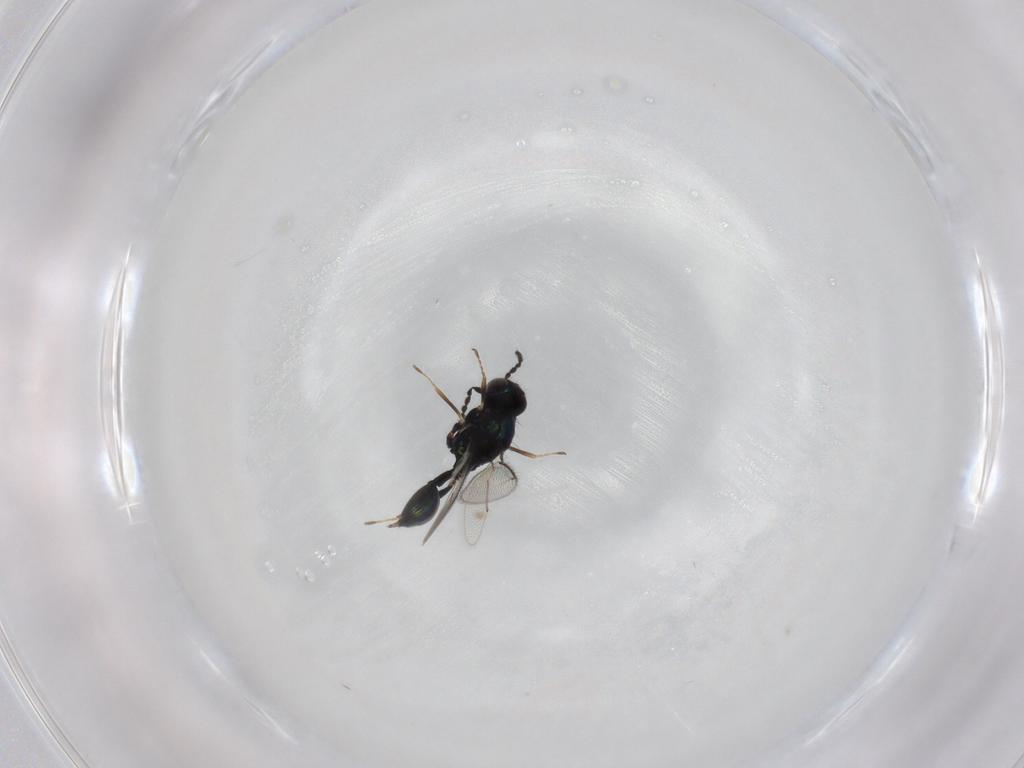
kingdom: Animalia
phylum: Arthropoda
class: Insecta
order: Hymenoptera
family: Eulophidae
